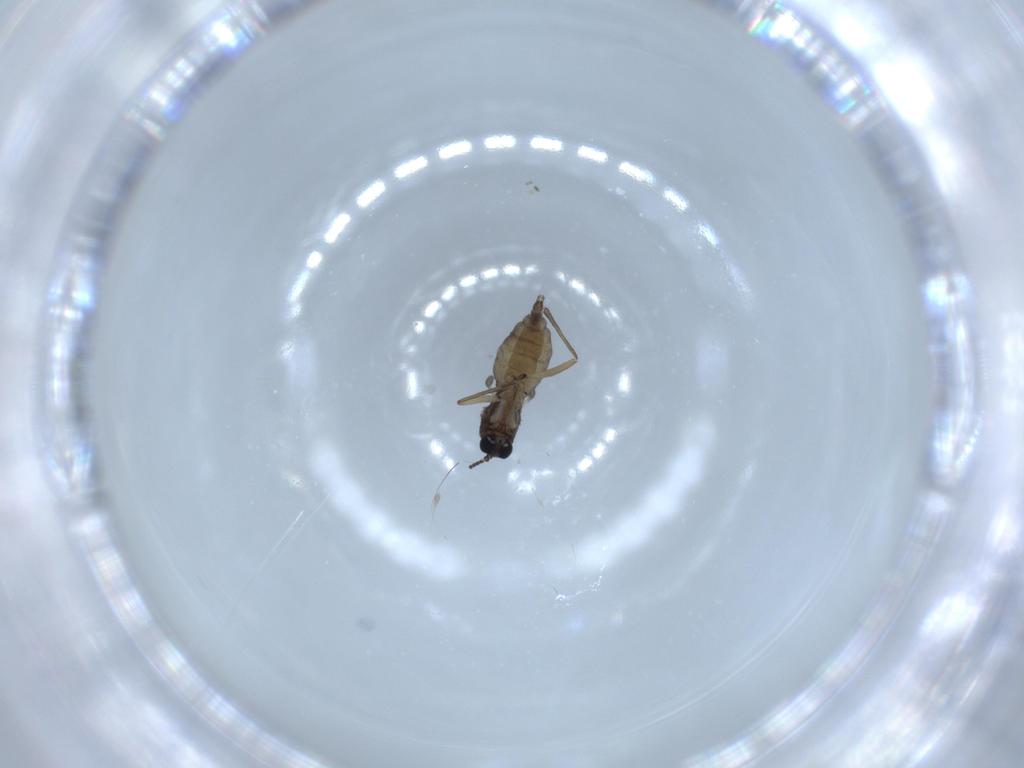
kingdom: Animalia
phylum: Arthropoda
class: Insecta
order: Diptera
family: Sciaridae
